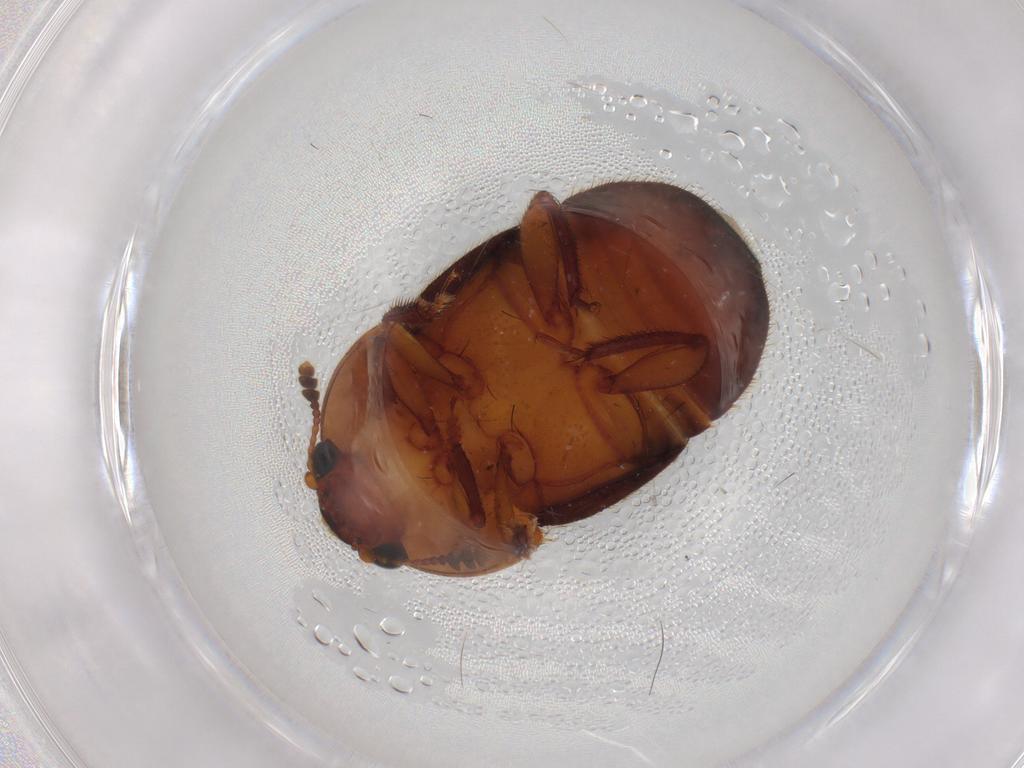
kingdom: Animalia
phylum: Arthropoda
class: Insecta
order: Coleoptera
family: Nitidulidae
